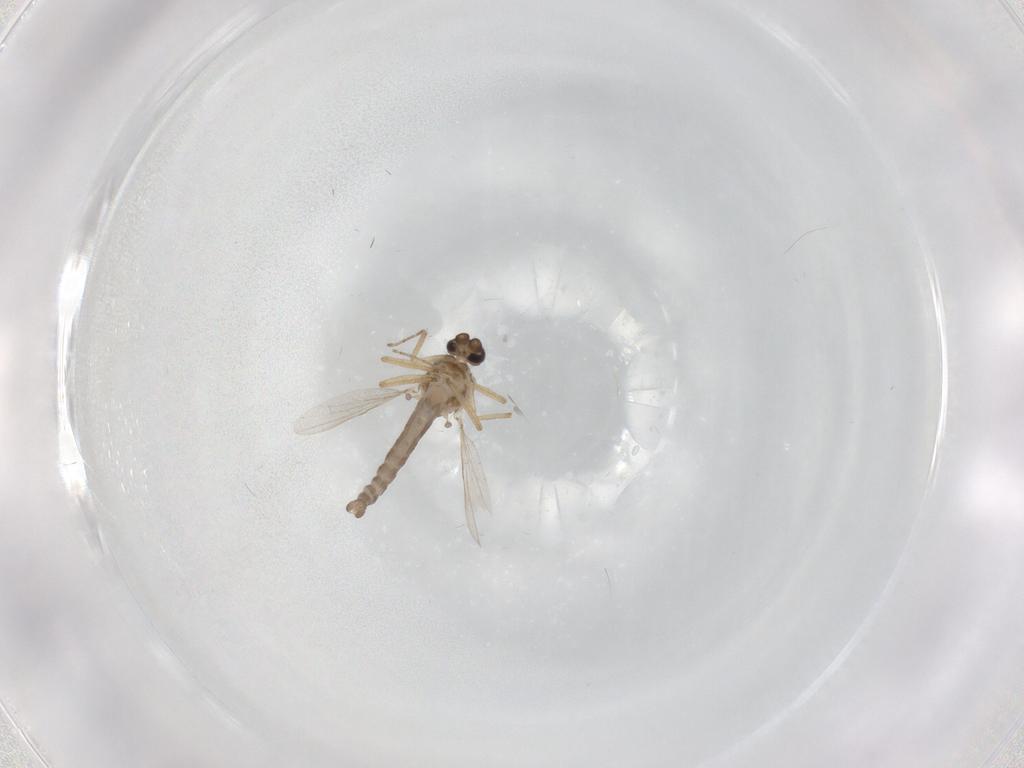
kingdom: Animalia
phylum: Arthropoda
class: Insecta
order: Diptera
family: Ceratopogonidae
